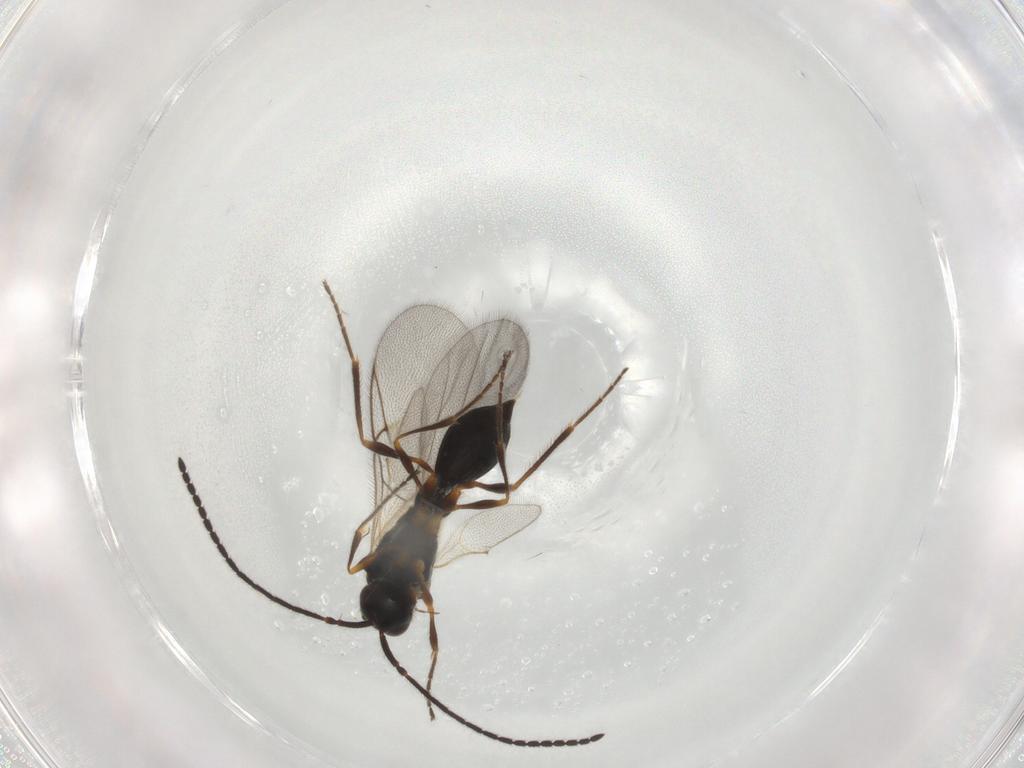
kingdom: Animalia
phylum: Arthropoda
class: Insecta
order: Hymenoptera
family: Diapriidae
